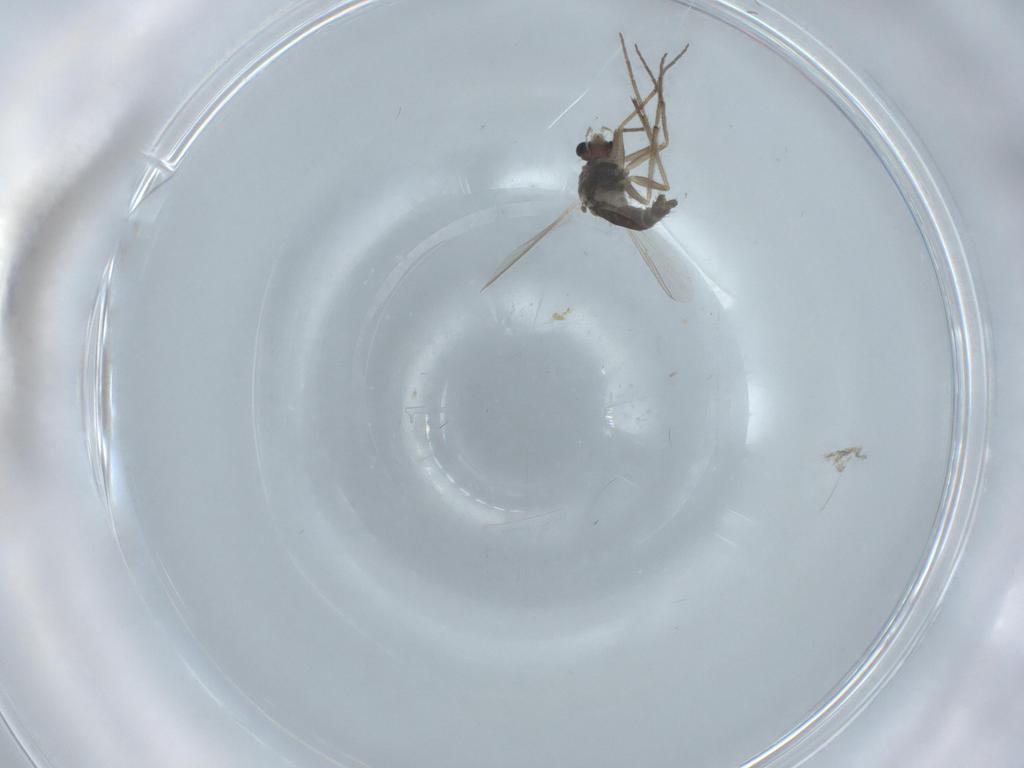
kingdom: Animalia
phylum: Arthropoda
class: Insecta
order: Diptera
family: Chironomidae
